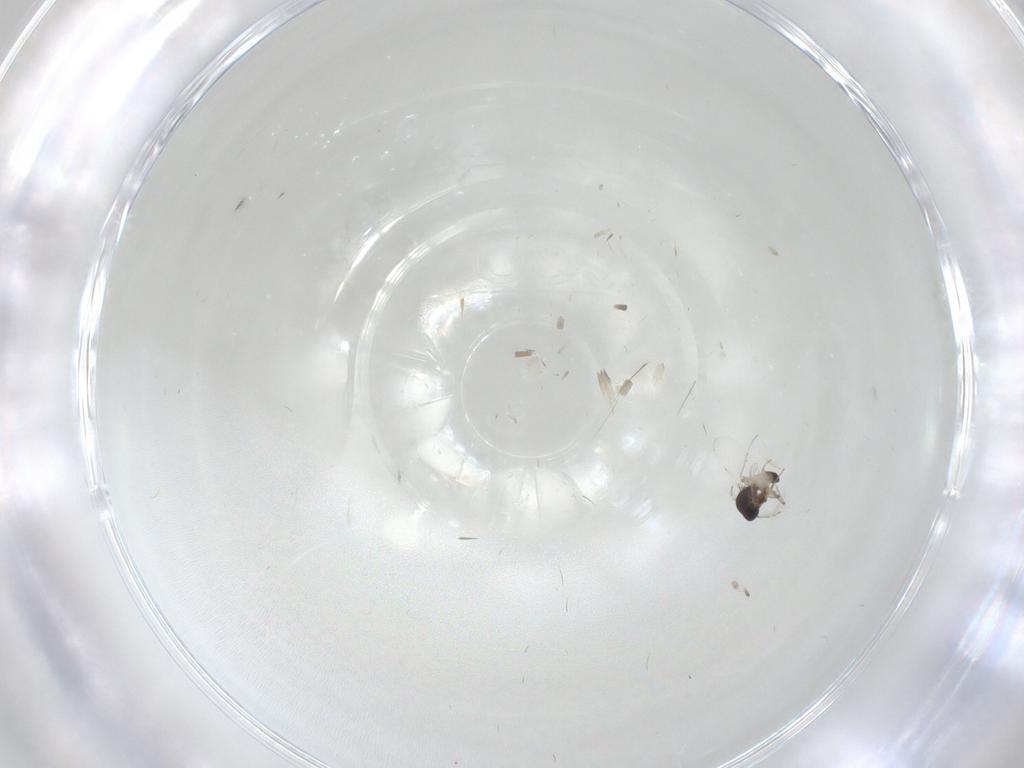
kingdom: Animalia
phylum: Arthropoda
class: Insecta
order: Diptera
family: Ceratopogonidae
